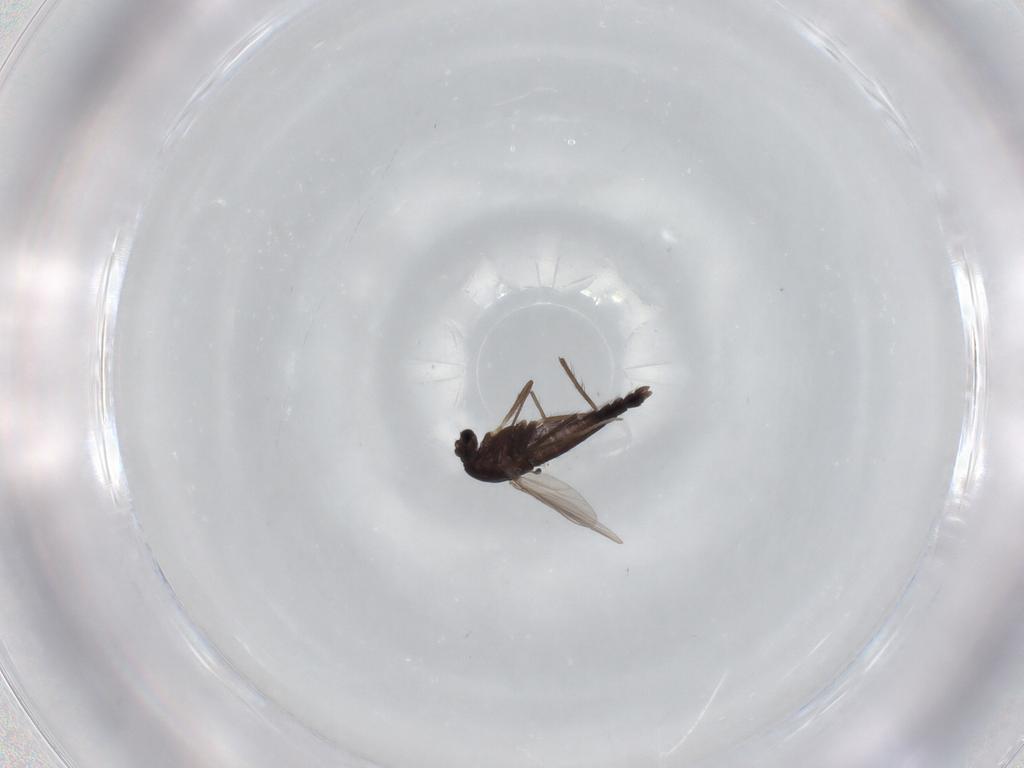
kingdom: Animalia
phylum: Arthropoda
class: Insecta
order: Diptera
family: Chironomidae
